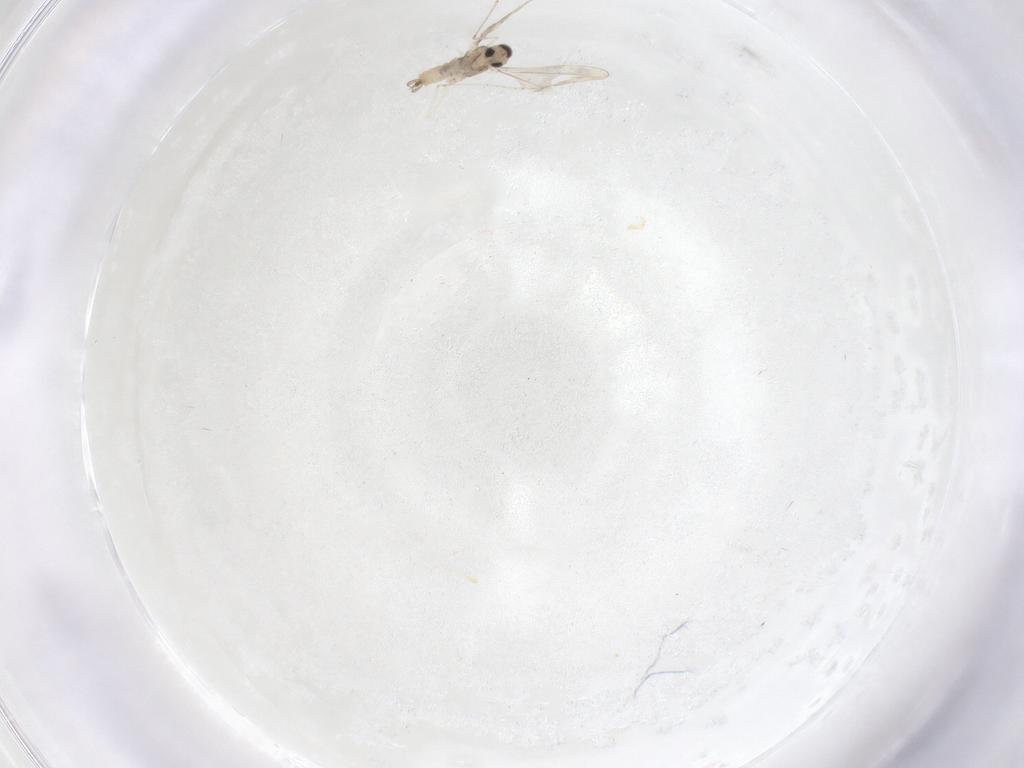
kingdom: Animalia
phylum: Arthropoda
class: Insecta
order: Diptera
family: Cecidomyiidae
